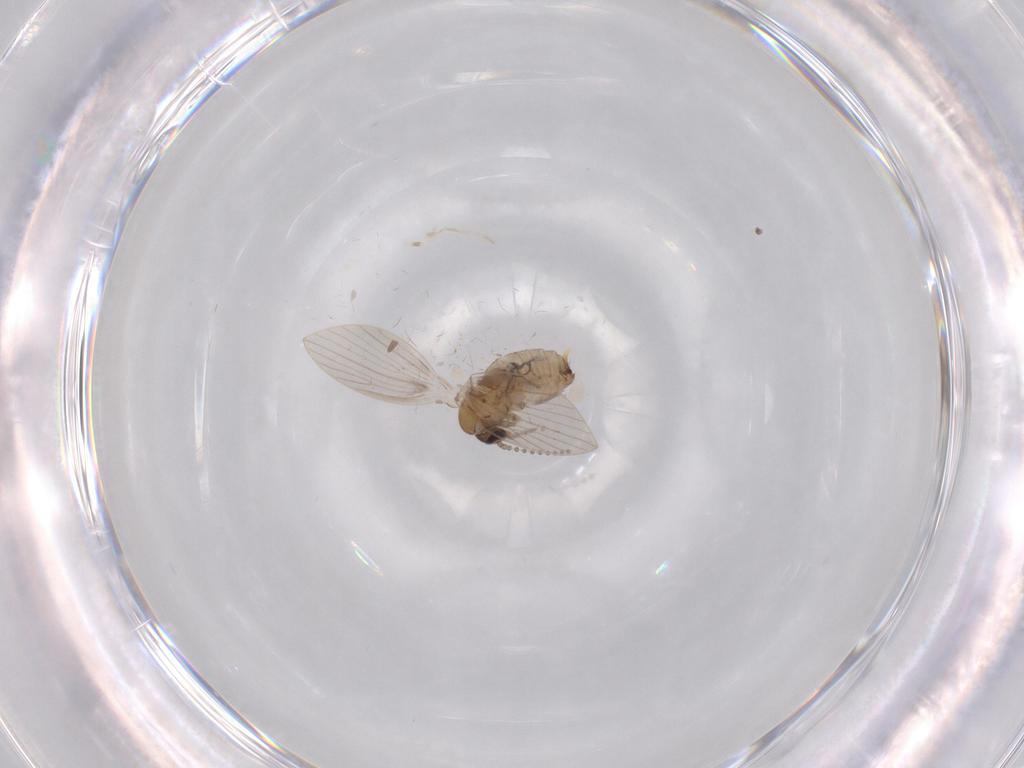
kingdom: Animalia
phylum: Arthropoda
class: Insecta
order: Diptera
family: Psychodidae
